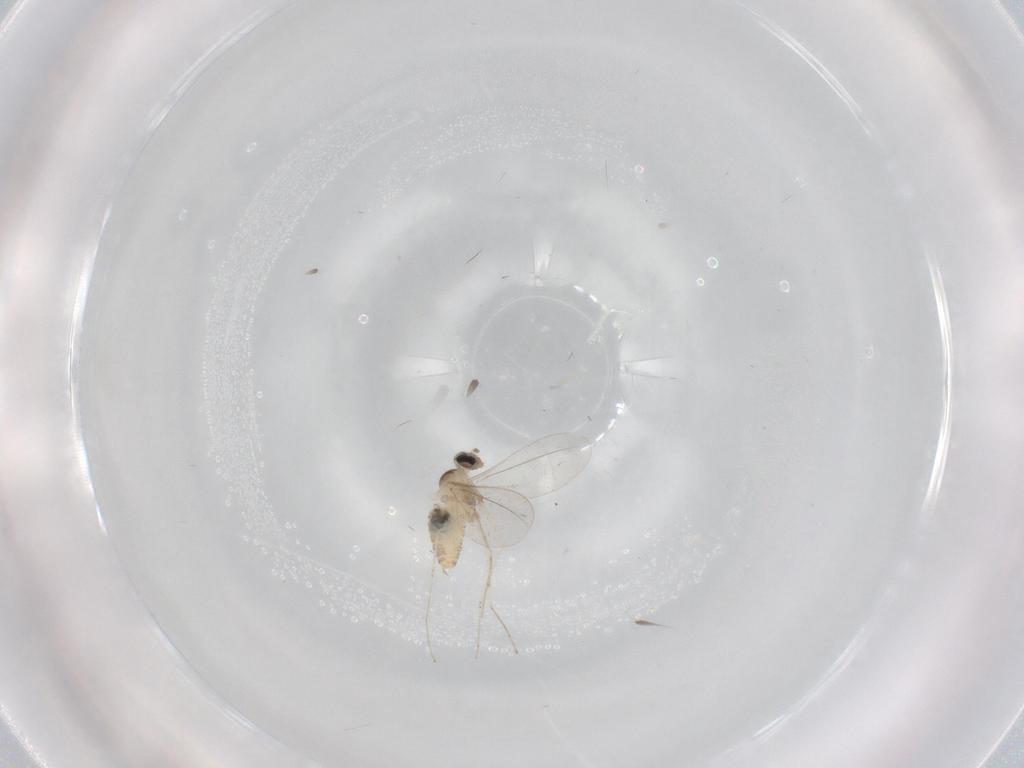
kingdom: Animalia
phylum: Arthropoda
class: Insecta
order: Diptera
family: Cecidomyiidae
